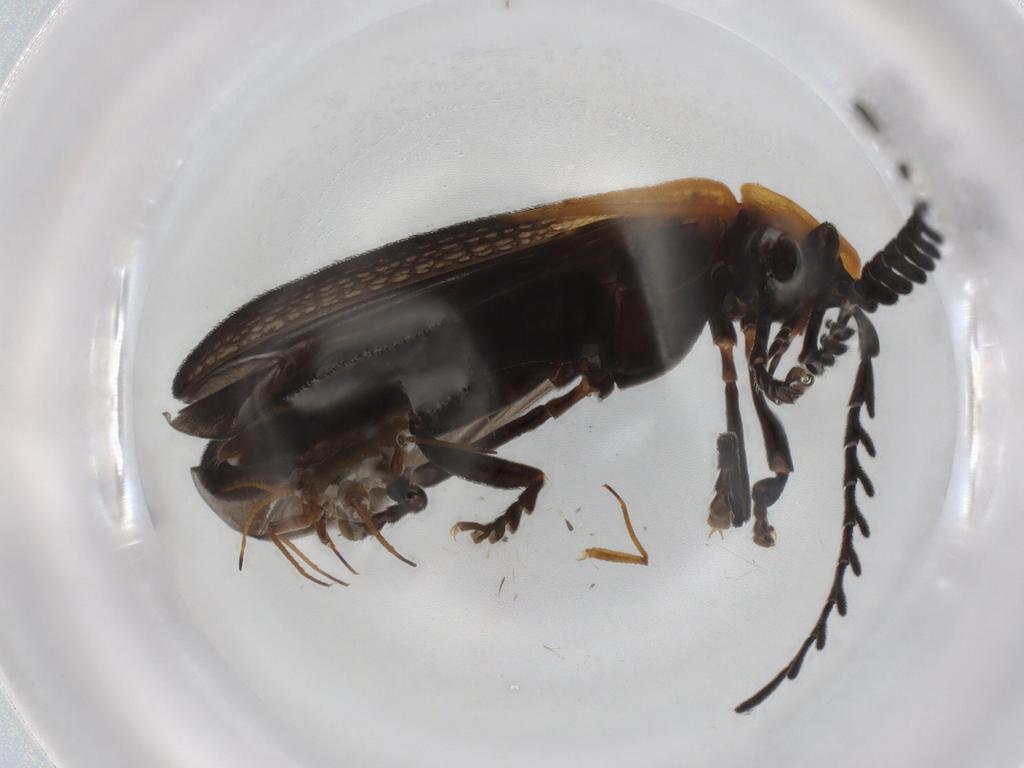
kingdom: Animalia
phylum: Arthropoda
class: Insecta
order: Coleoptera
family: Lycidae
